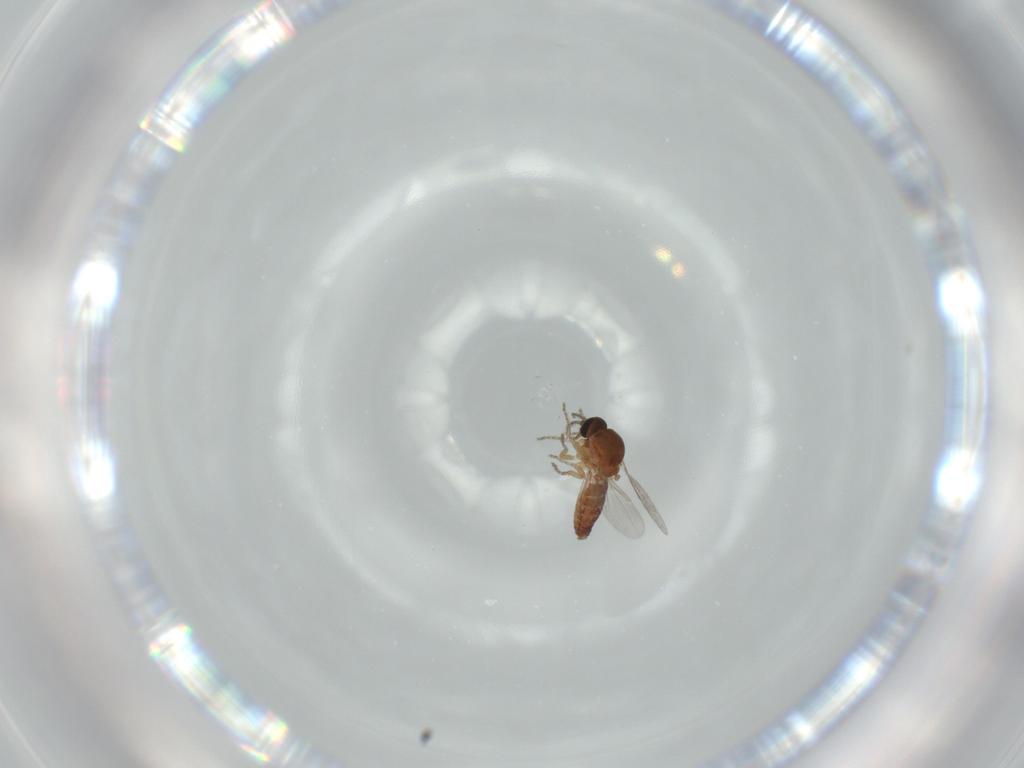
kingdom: Animalia
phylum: Arthropoda
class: Insecta
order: Diptera
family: Ceratopogonidae
